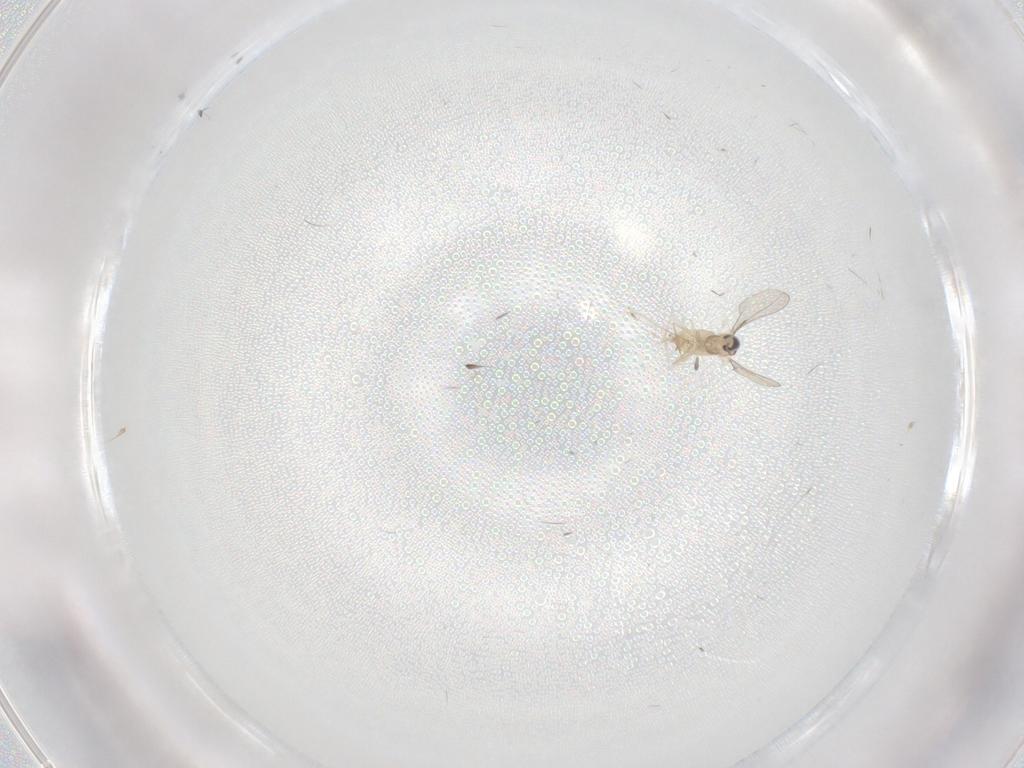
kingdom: Animalia
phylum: Arthropoda
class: Insecta
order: Diptera
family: Cecidomyiidae
